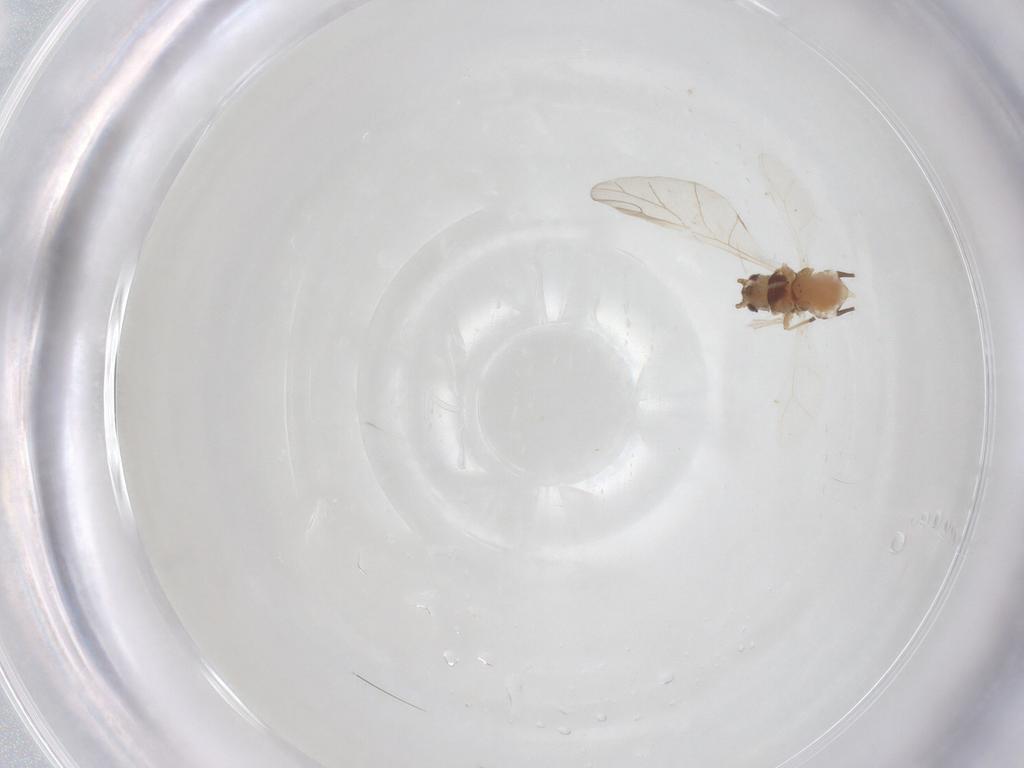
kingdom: Animalia
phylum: Arthropoda
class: Insecta
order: Hemiptera
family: Aphididae
